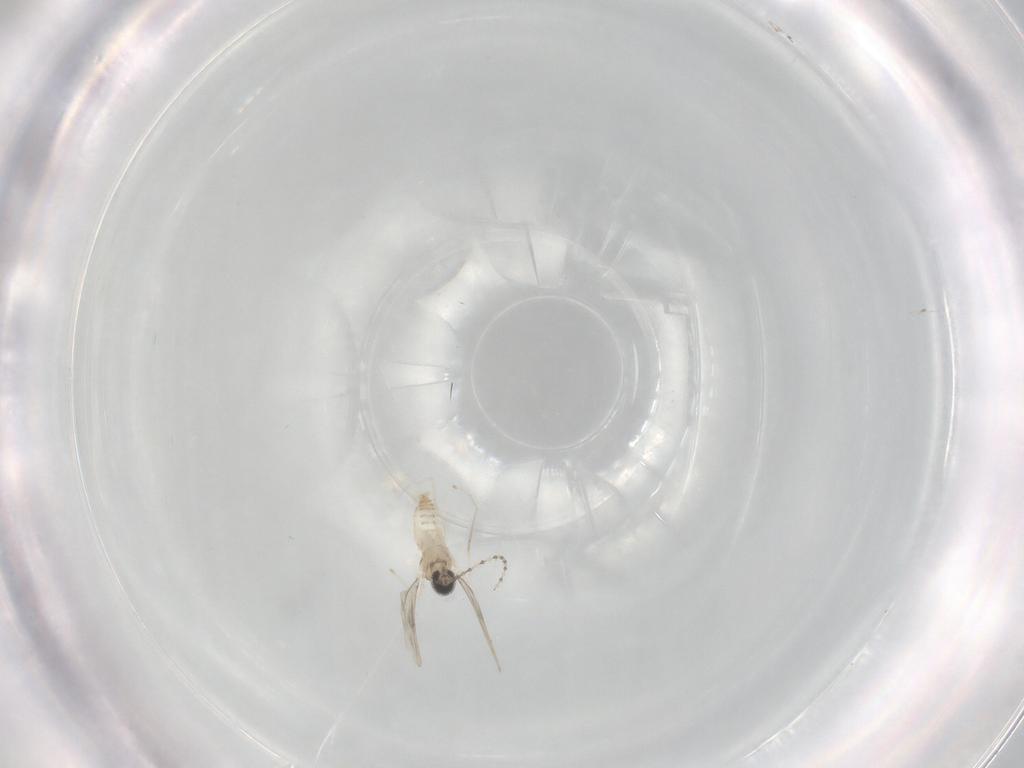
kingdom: Animalia
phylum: Arthropoda
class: Insecta
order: Diptera
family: Cecidomyiidae
